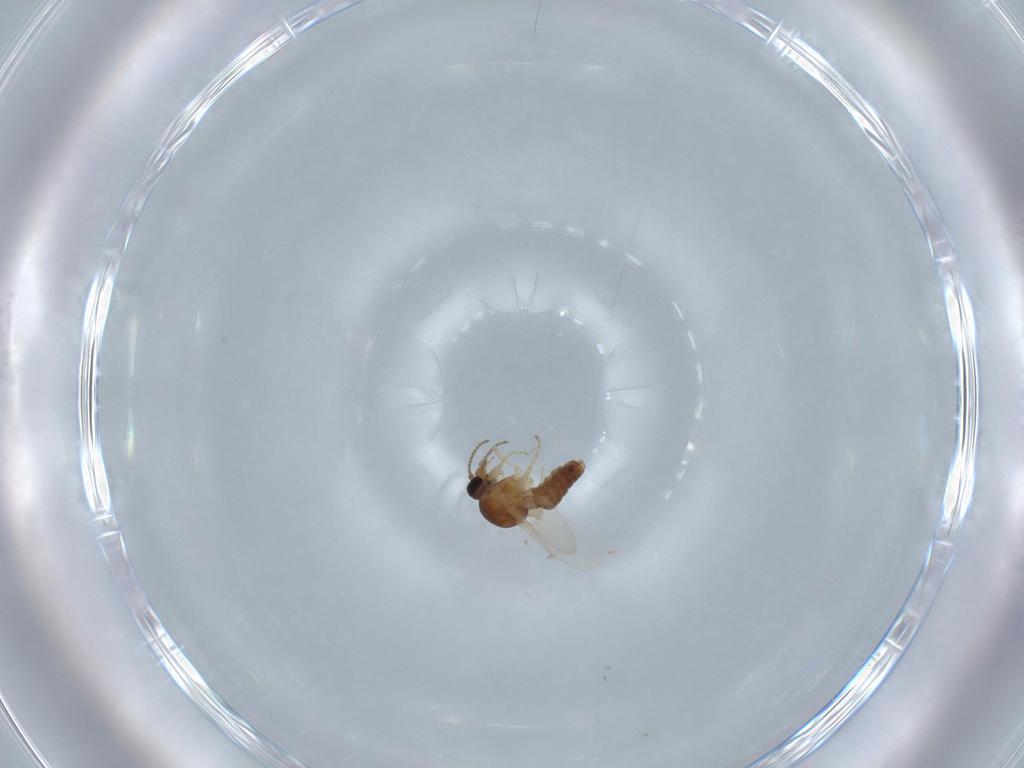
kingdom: Animalia
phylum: Arthropoda
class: Insecta
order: Diptera
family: Ceratopogonidae
